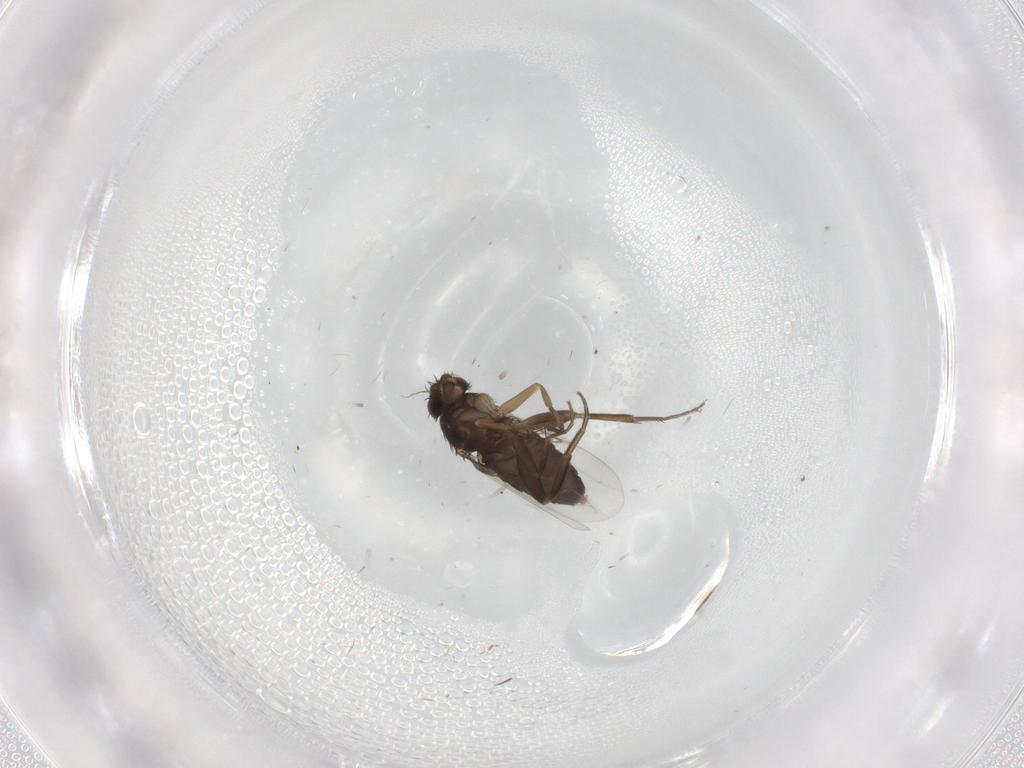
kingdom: Animalia
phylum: Arthropoda
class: Insecta
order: Diptera
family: Phoridae
